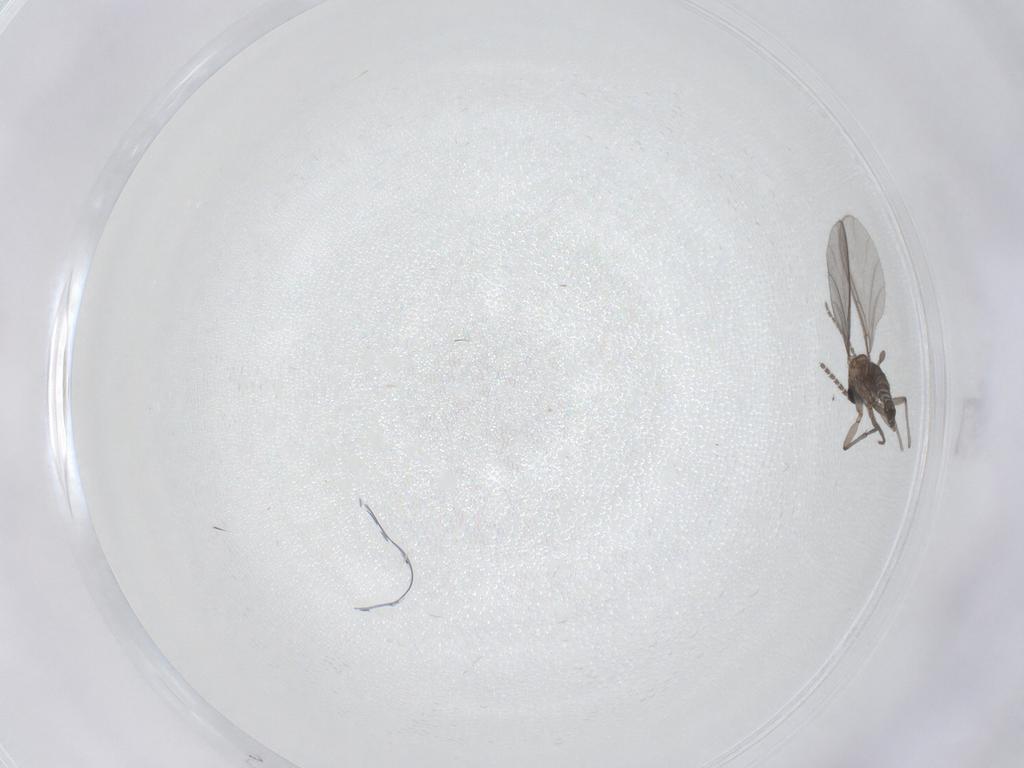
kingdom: Animalia
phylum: Arthropoda
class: Insecta
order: Diptera
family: Sciaridae
